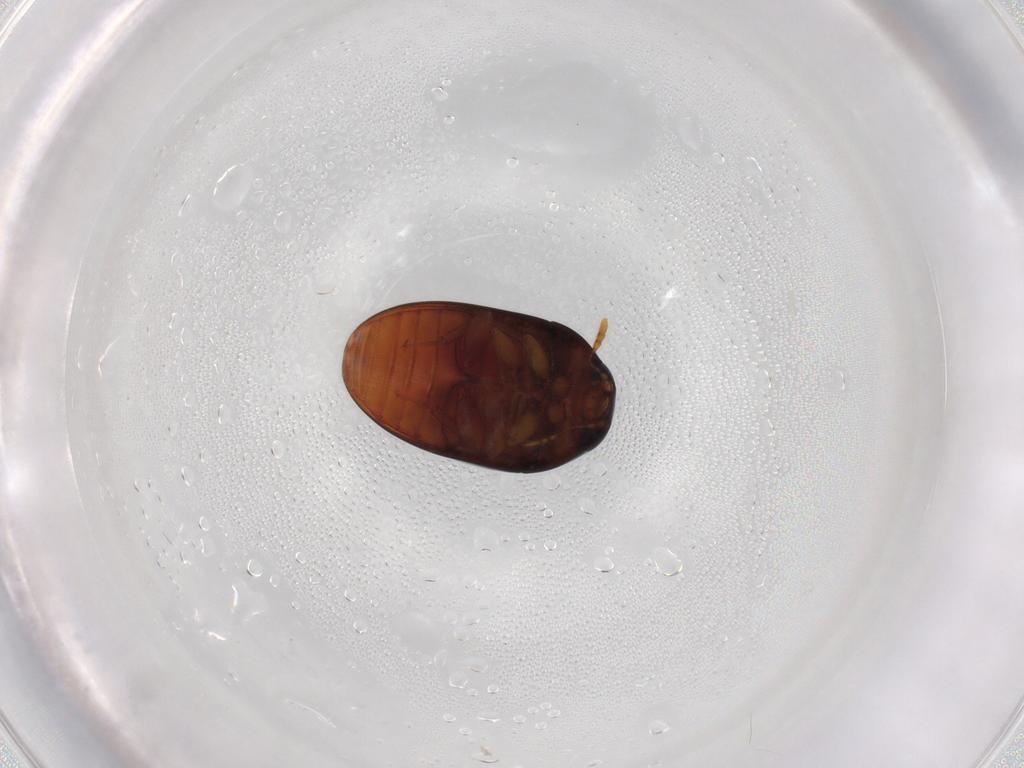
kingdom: Animalia
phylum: Arthropoda
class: Insecta
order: Coleoptera
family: Phalacridae
